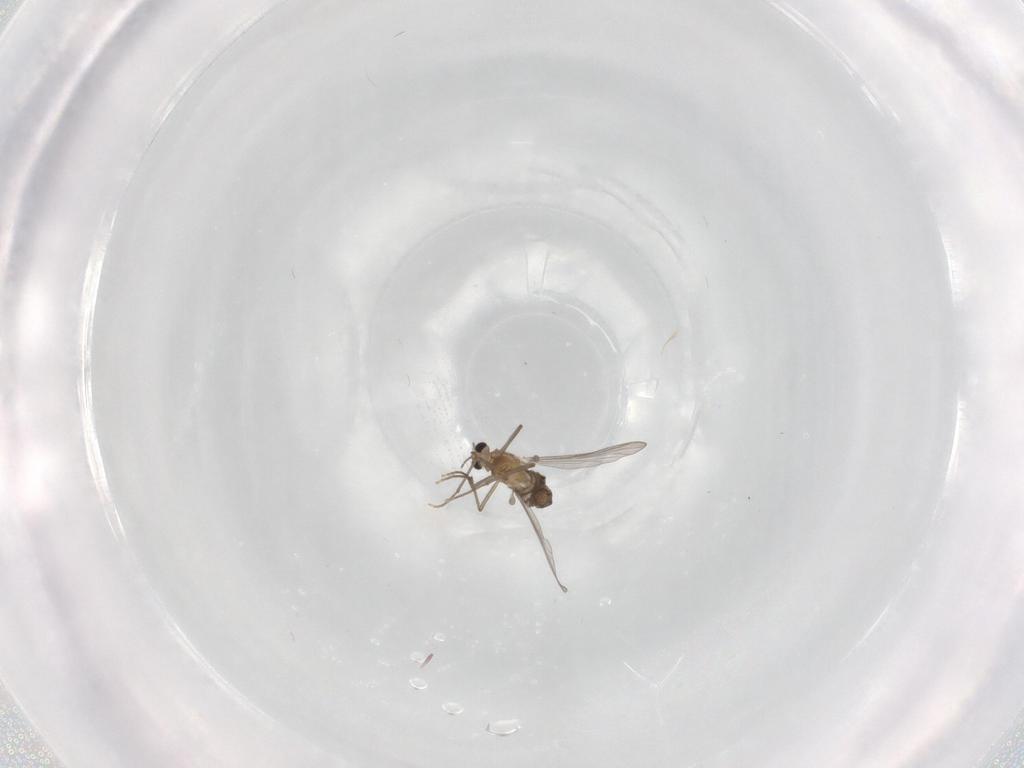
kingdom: Animalia
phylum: Arthropoda
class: Insecta
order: Diptera
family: Chironomidae
